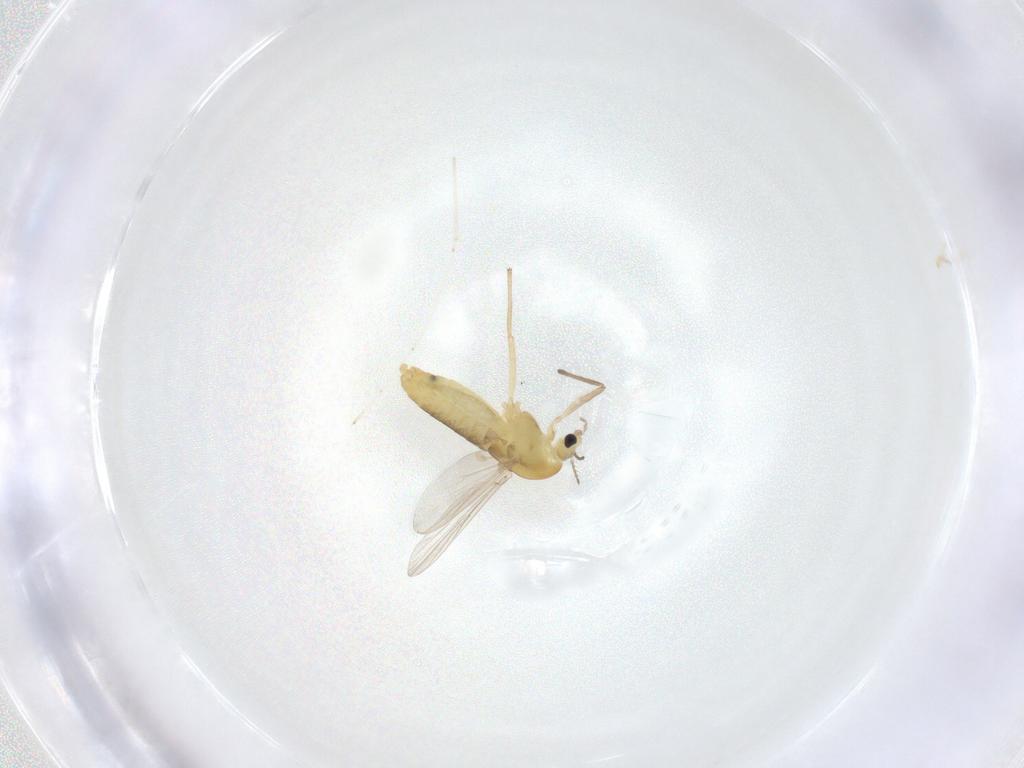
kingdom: Animalia
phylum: Arthropoda
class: Insecta
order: Diptera
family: Chironomidae
